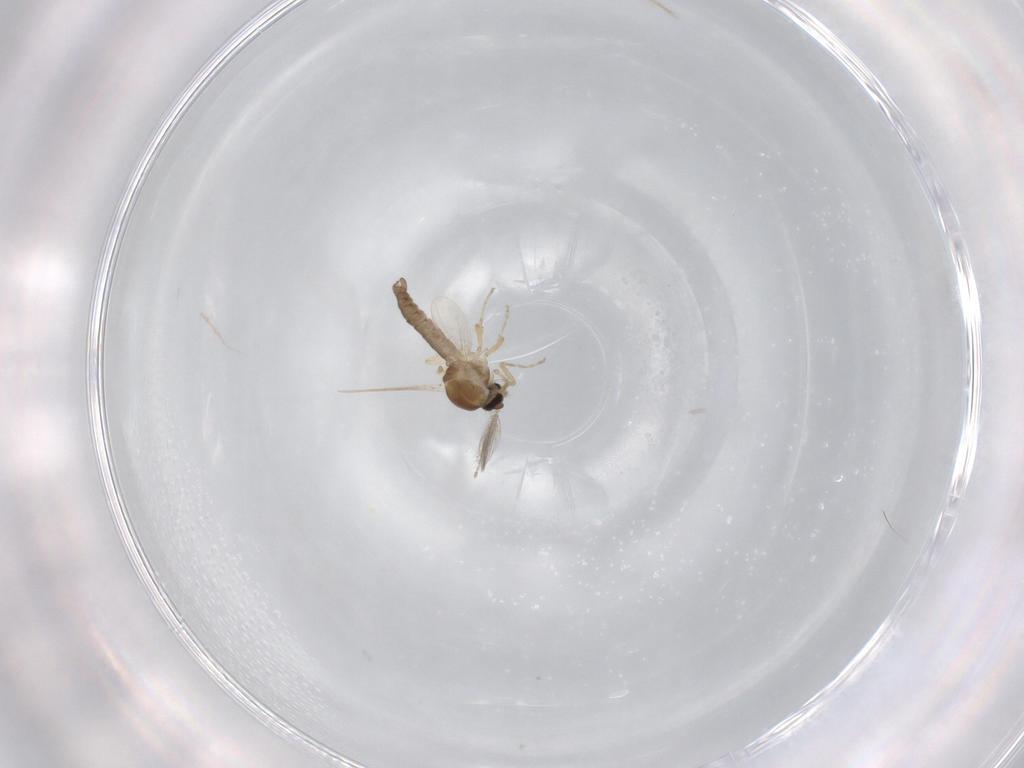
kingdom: Animalia
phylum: Arthropoda
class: Insecta
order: Diptera
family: Ceratopogonidae
